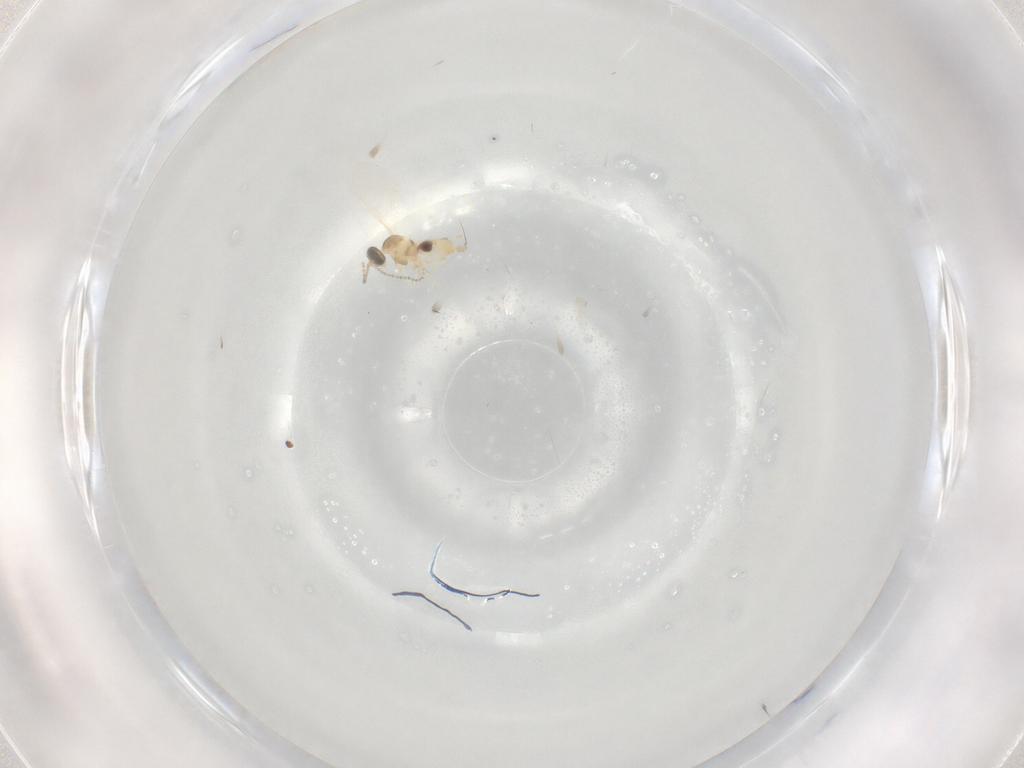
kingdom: Animalia
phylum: Arthropoda
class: Insecta
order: Diptera
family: Cecidomyiidae
